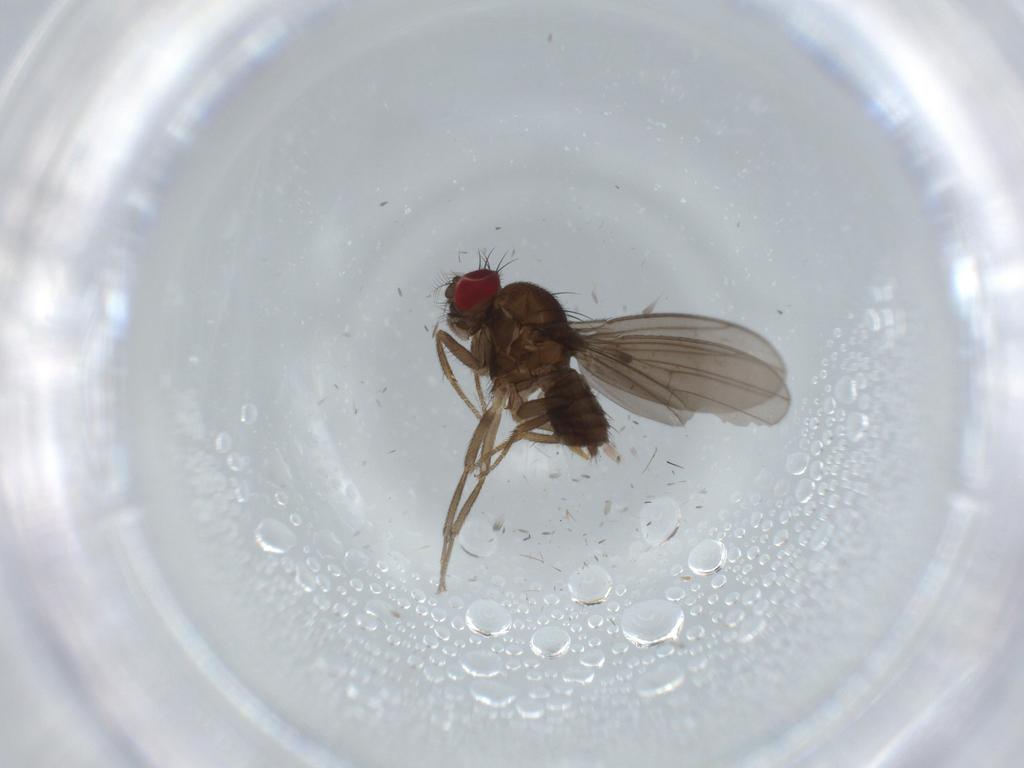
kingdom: Animalia
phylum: Arthropoda
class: Insecta
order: Diptera
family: Drosophilidae
